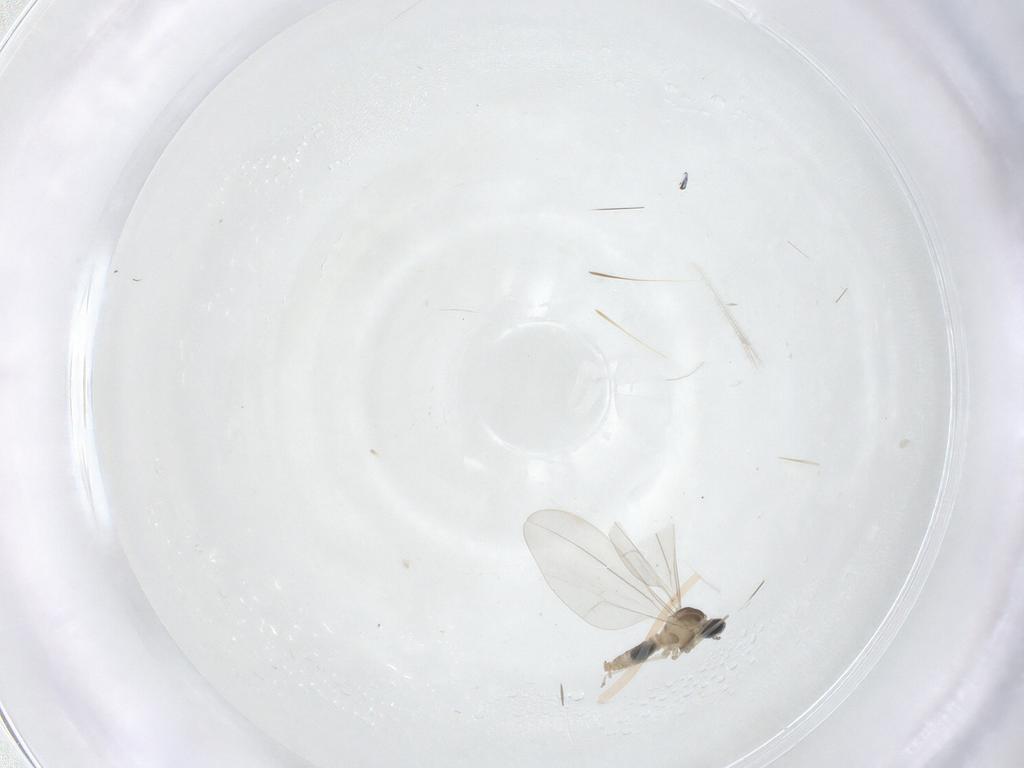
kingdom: Animalia
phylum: Arthropoda
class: Insecta
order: Diptera
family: Cecidomyiidae
